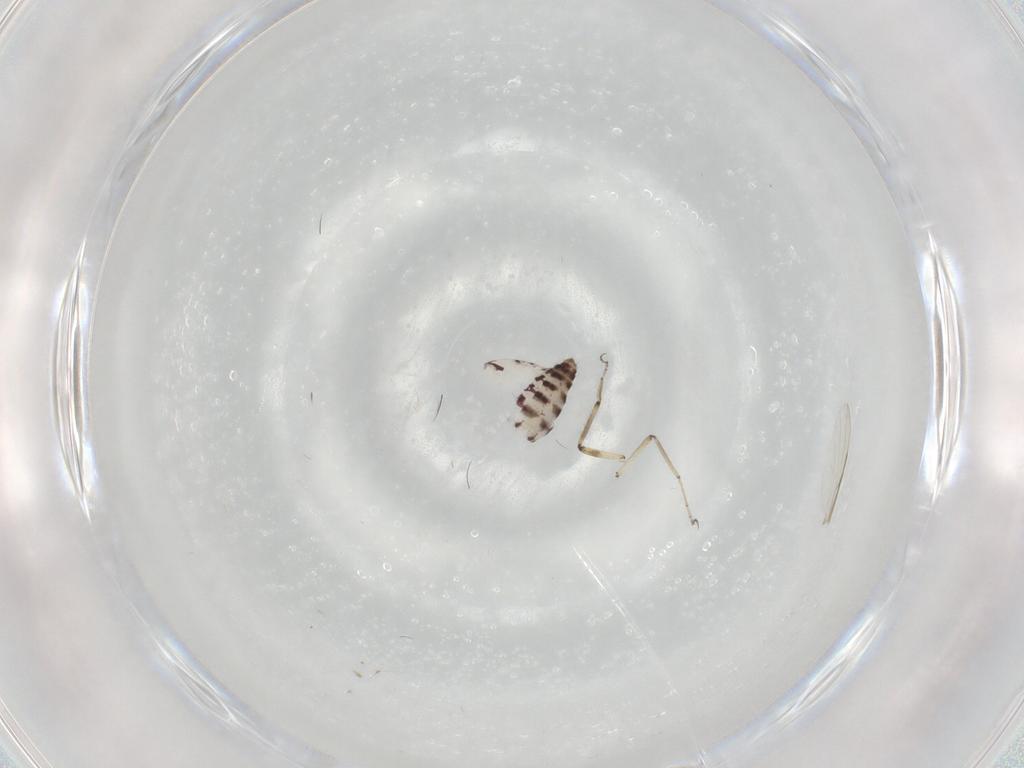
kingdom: Animalia
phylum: Arthropoda
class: Insecta
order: Diptera
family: Ceratopogonidae
